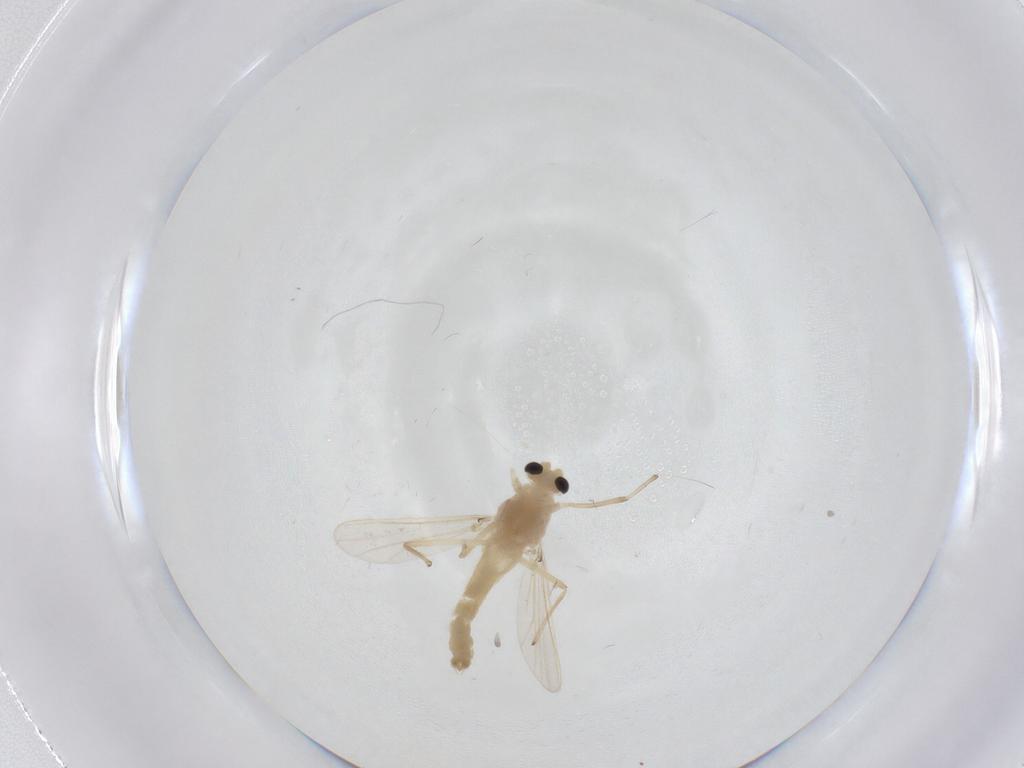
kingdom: Animalia
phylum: Arthropoda
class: Insecta
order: Diptera
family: Chironomidae
